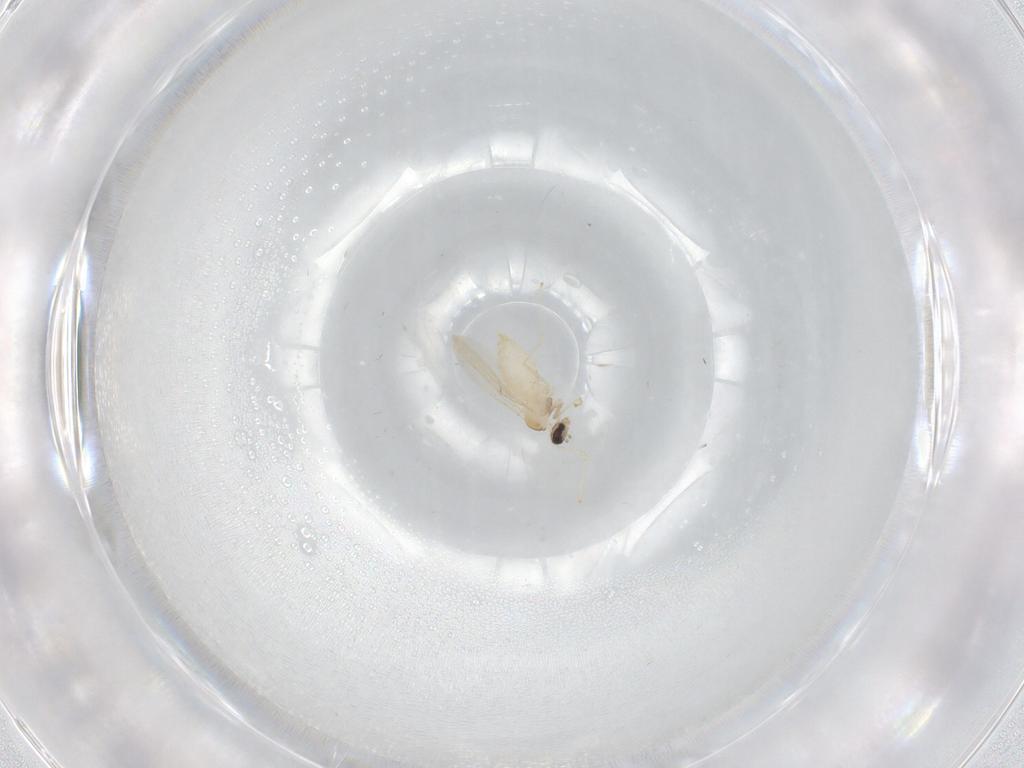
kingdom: Animalia
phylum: Arthropoda
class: Insecta
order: Diptera
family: Cecidomyiidae
